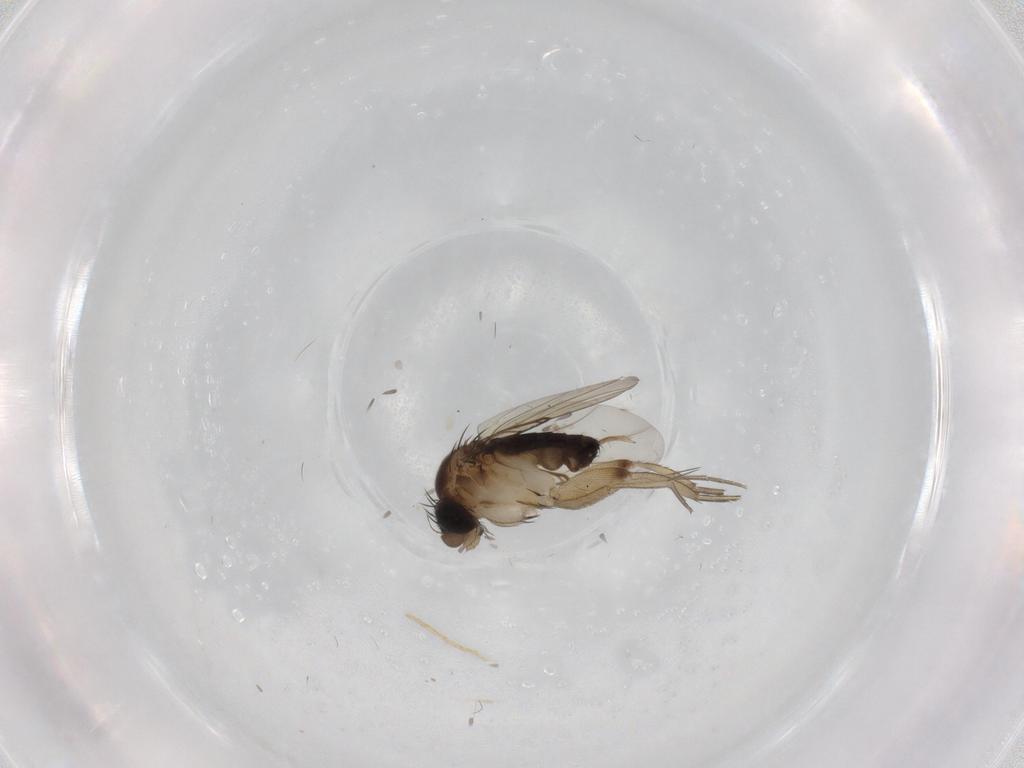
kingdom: Animalia
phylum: Arthropoda
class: Insecta
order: Diptera
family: Phoridae
